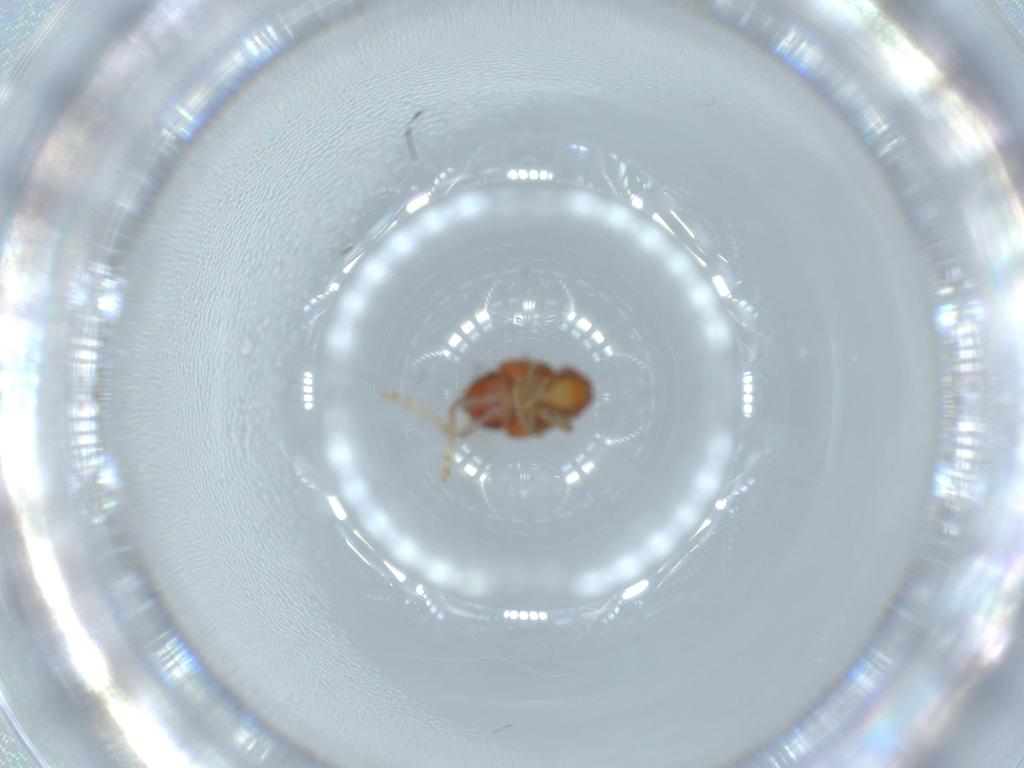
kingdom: Animalia
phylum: Arthropoda
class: Insecta
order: Hemiptera
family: Issidae
